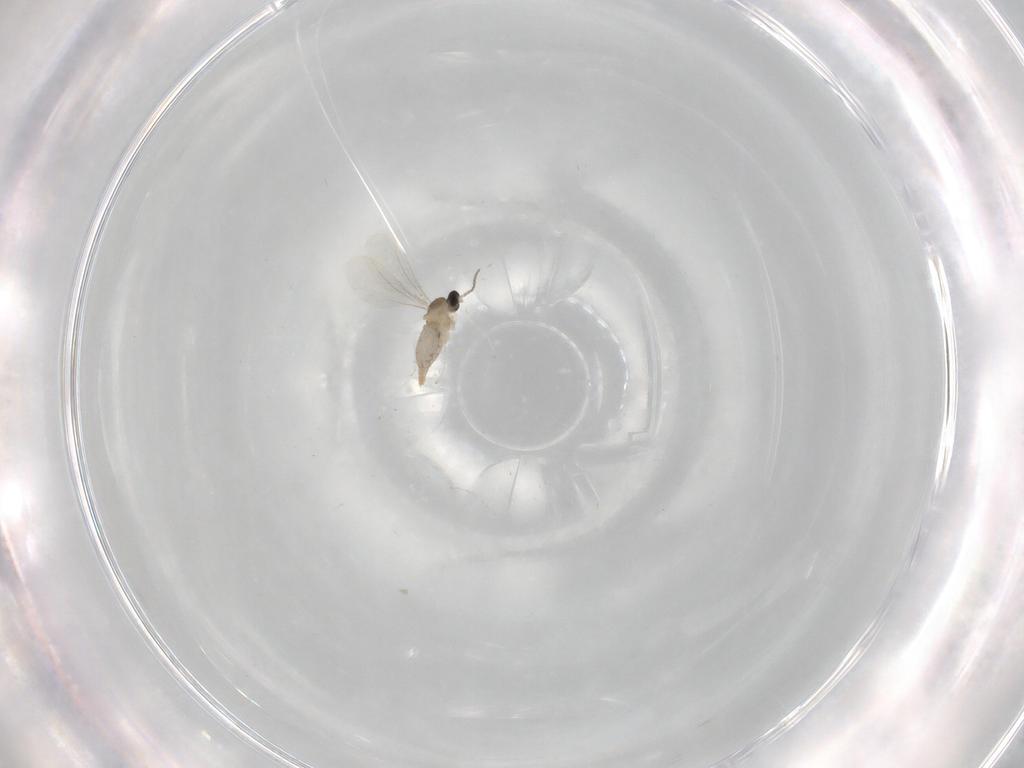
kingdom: Animalia
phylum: Arthropoda
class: Insecta
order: Diptera
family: Cecidomyiidae
